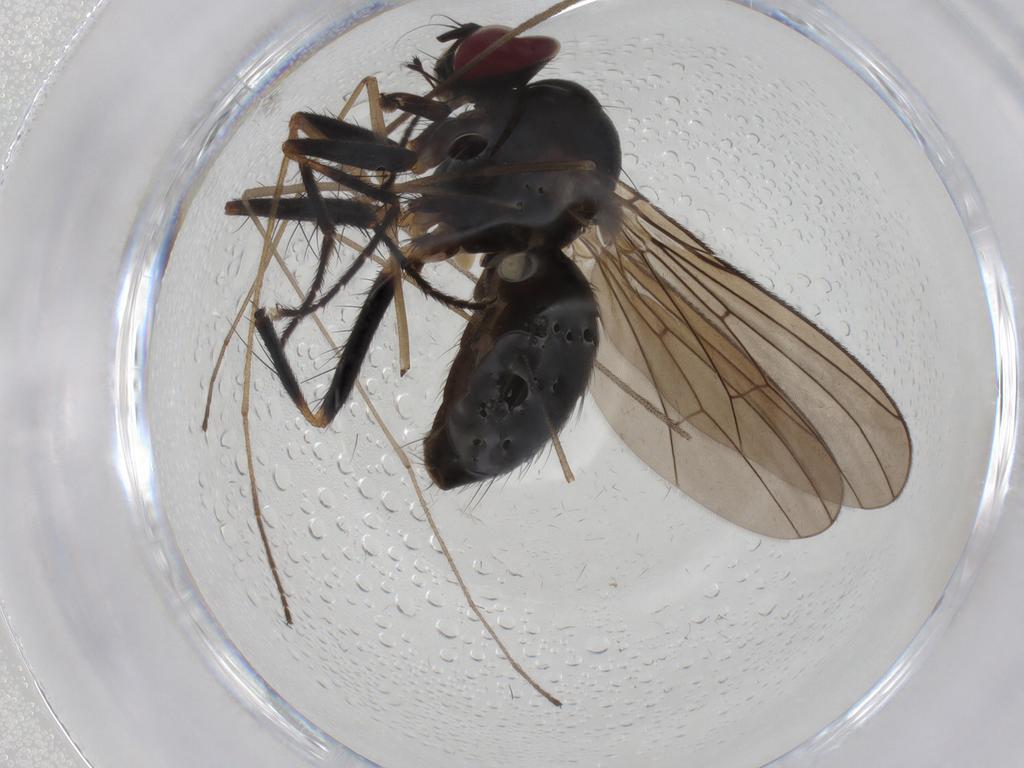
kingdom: Animalia
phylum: Arthropoda
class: Insecta
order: Diptera
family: Anthomyiidae
